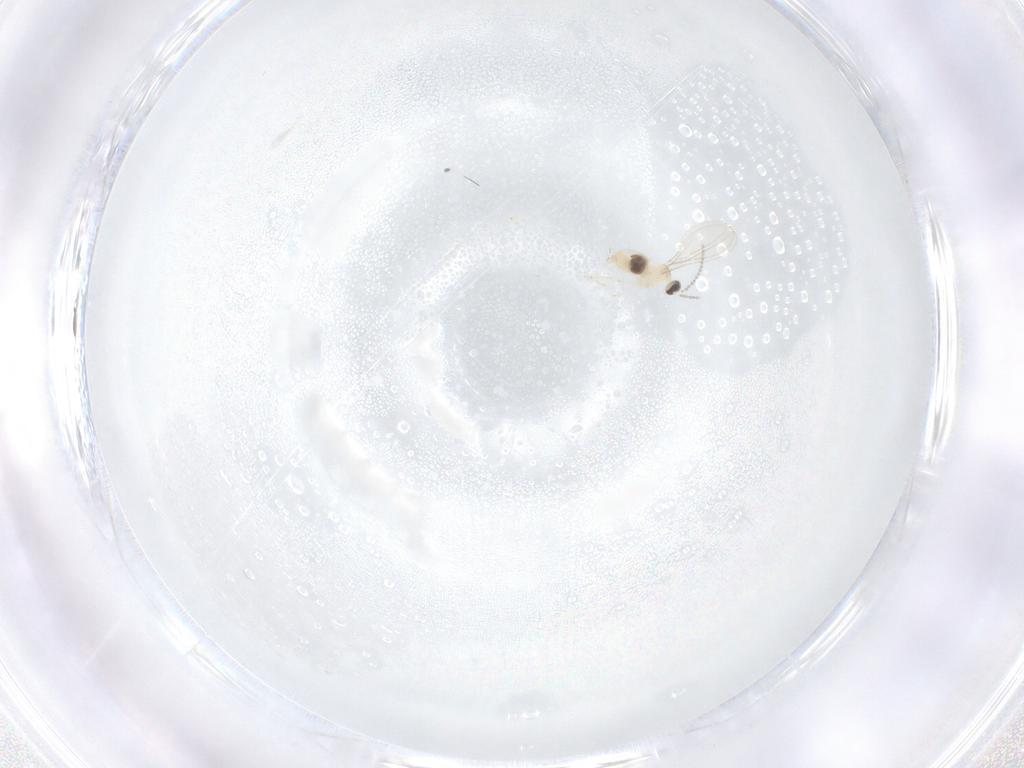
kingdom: Animalia
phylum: Arthropoda
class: Insecta
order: Diptera
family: Cecidomyiidae
